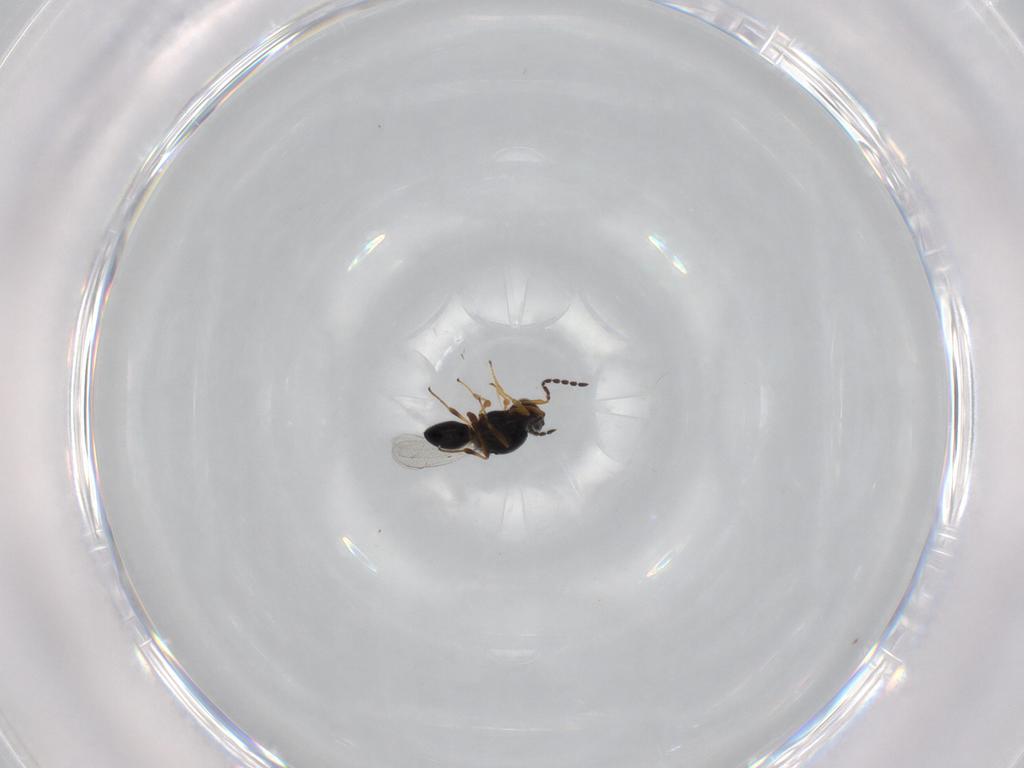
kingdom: Animalia
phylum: Arthropoda
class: Insecta
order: Hymenoptera
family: Platygastridae
